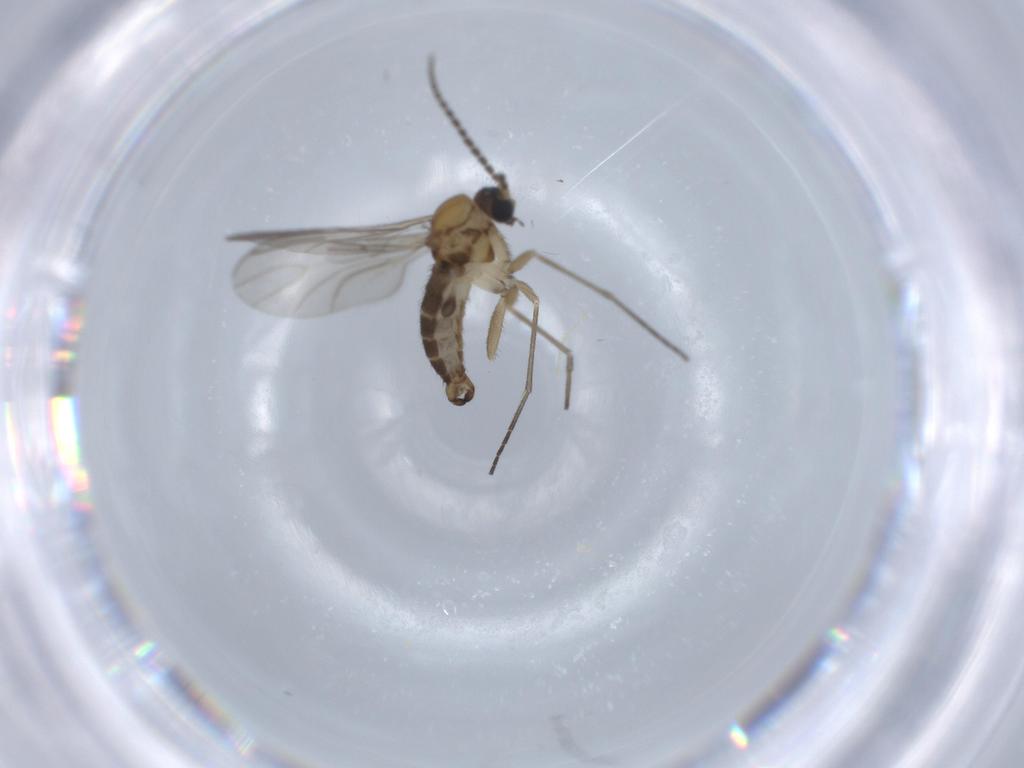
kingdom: Animalia
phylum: Arthropoda
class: Insecta
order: Diptera
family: Sciaridae
